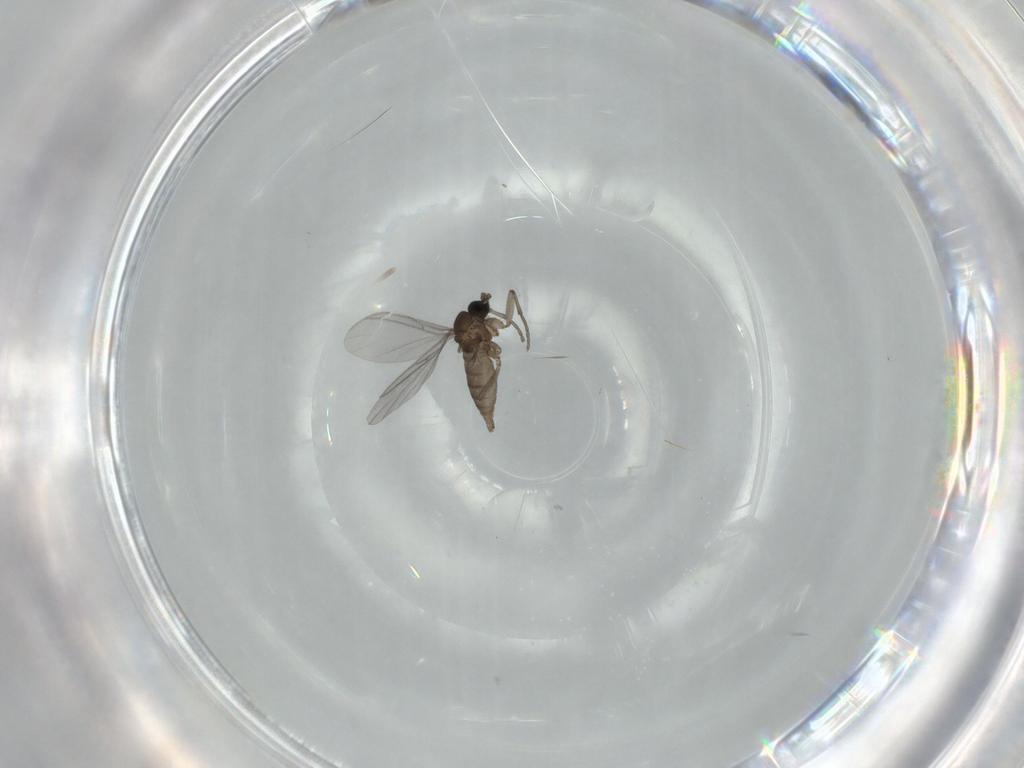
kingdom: Animalia
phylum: Arthropoda
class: Insecta
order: Diptera
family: Sciaridae
